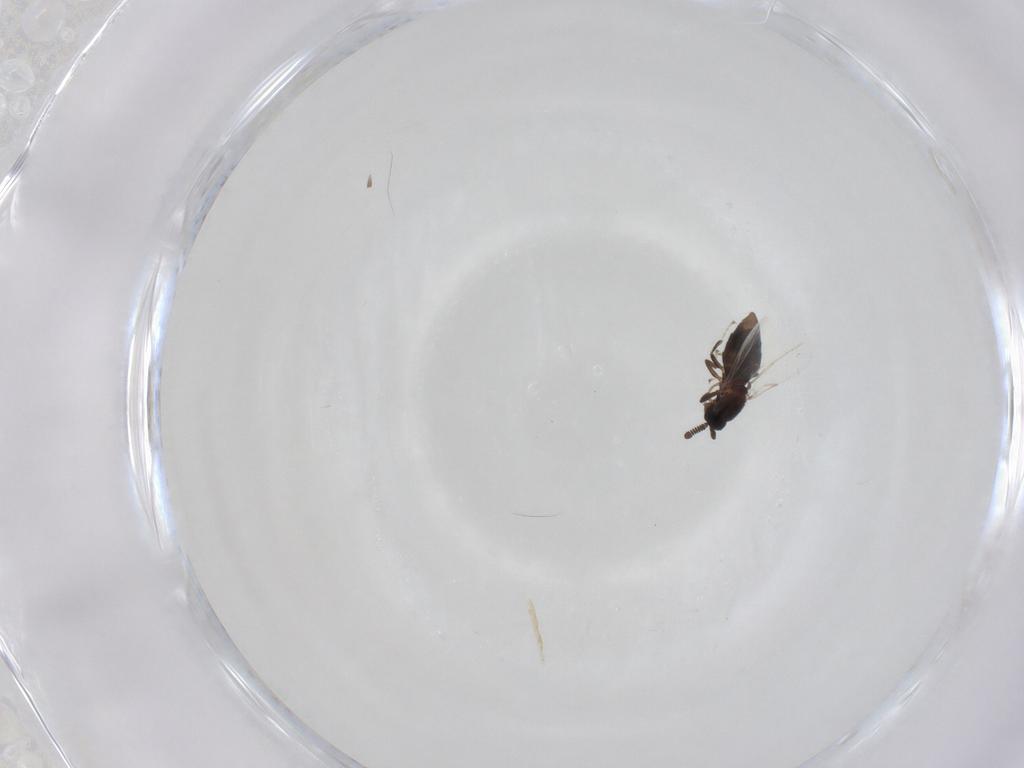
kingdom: Animalia
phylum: Arthropoda
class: Insecta
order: Diptera
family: Scatopsidae
